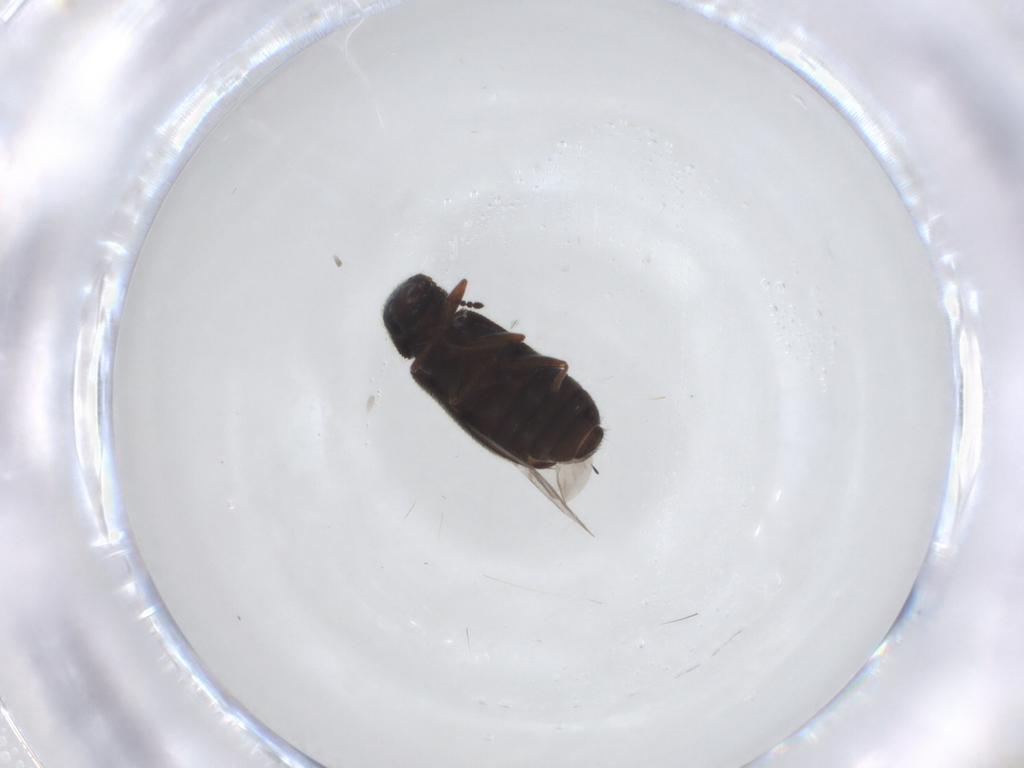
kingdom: Animalia
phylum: Arthropoda
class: Insecta
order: Coleoptera
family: Melyridae
